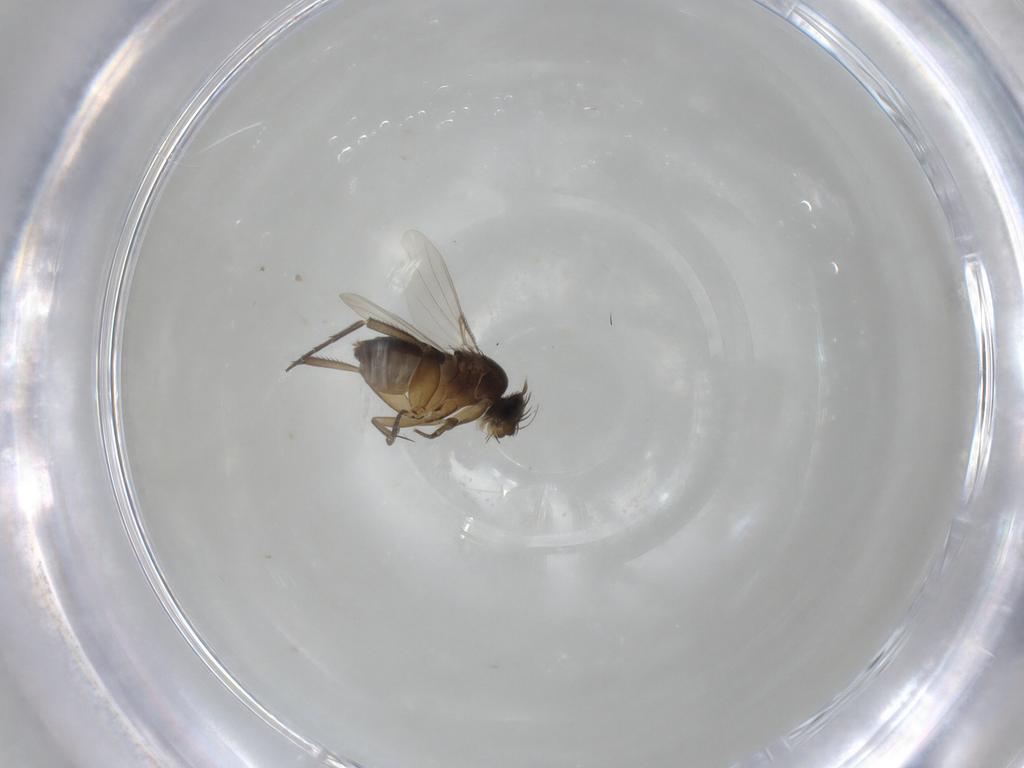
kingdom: Animalia
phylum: Arthropoda
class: Insecta
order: Diptera
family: Phoridae
